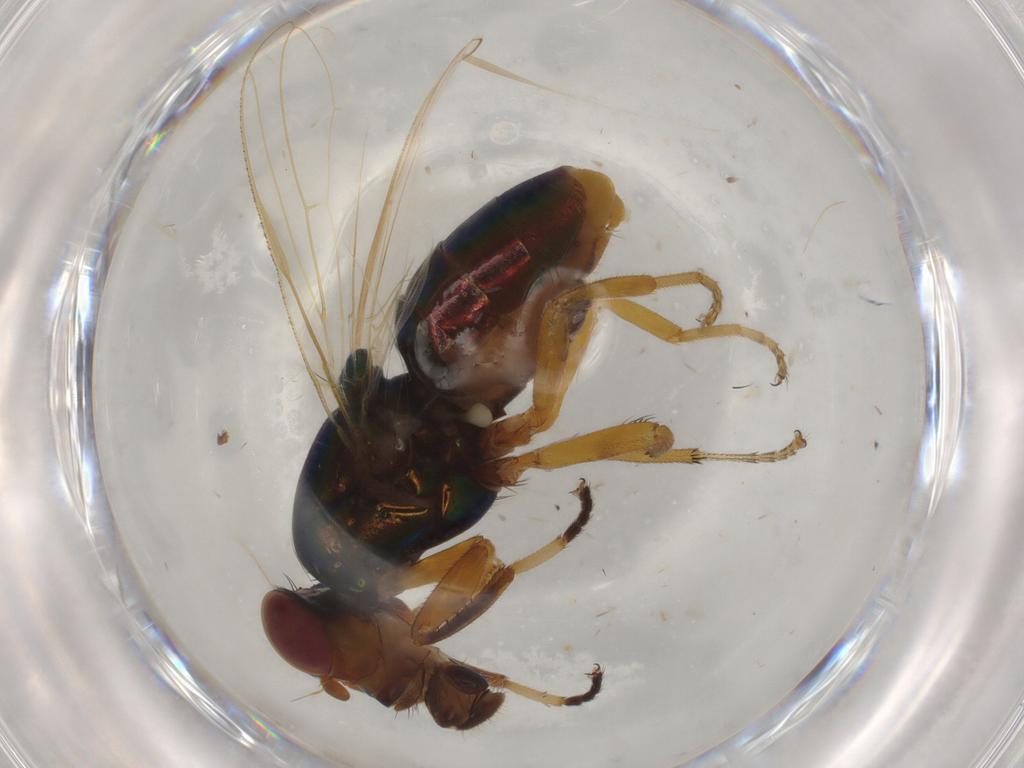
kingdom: Animalia
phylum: Arthropoda
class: Insecta
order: Diptera
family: Ulidiidae
